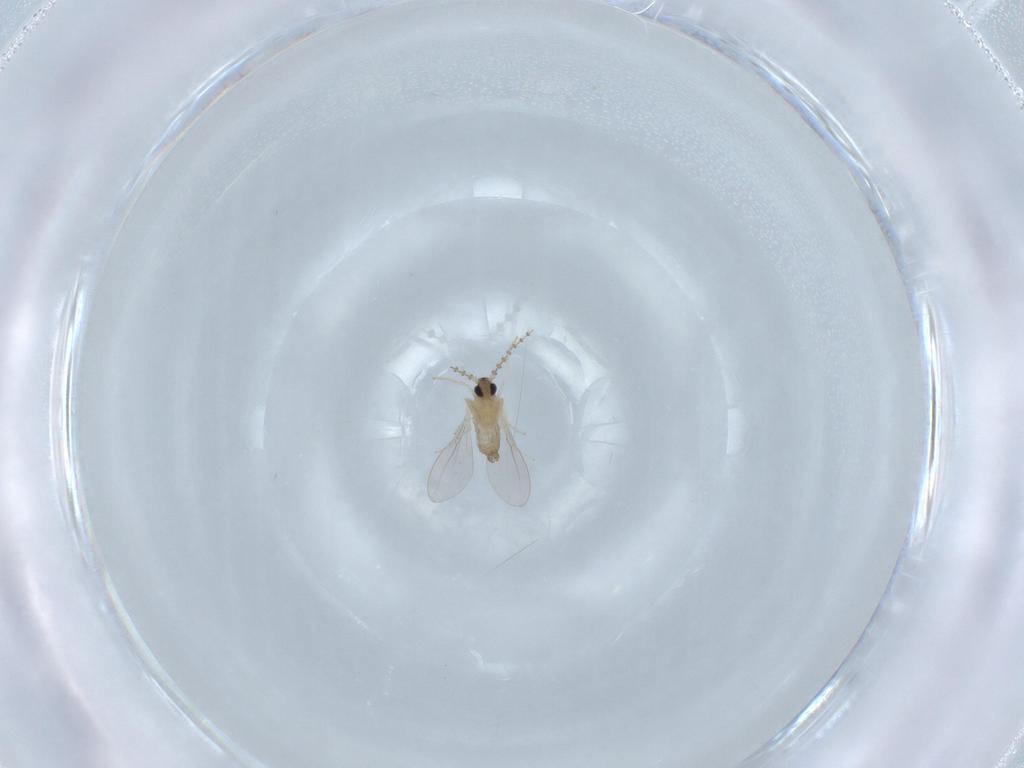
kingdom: Animalia
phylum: Arthropoda
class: Insecta
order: Diptera
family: Cecidomyiidae
